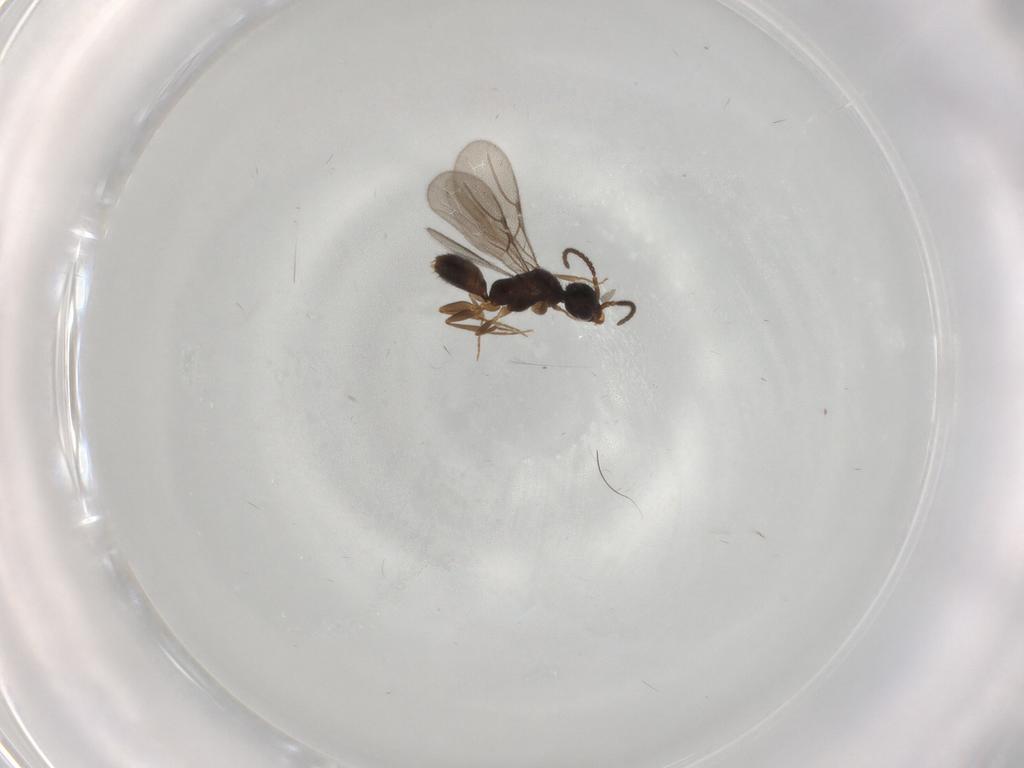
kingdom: Animalia
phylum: Arthropoda
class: Insecta
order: Hymenoptera
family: Bethylidae
